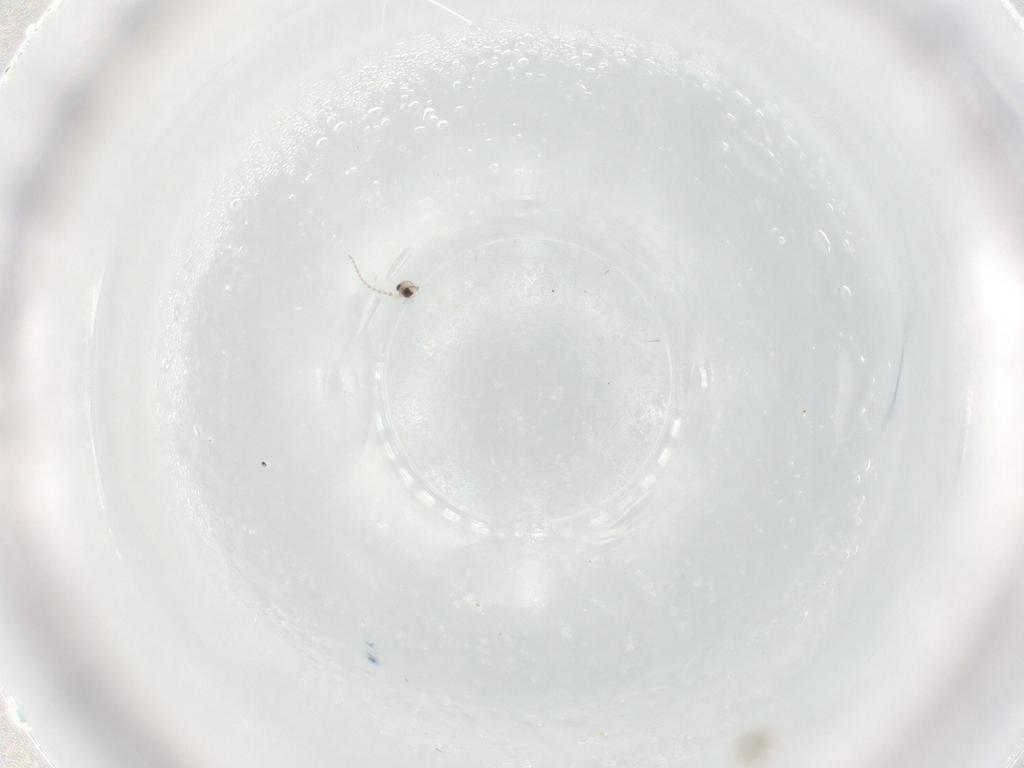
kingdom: Animalia
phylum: Arthropoda
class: Insecta
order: Diptera
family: Cecidomyiidae
